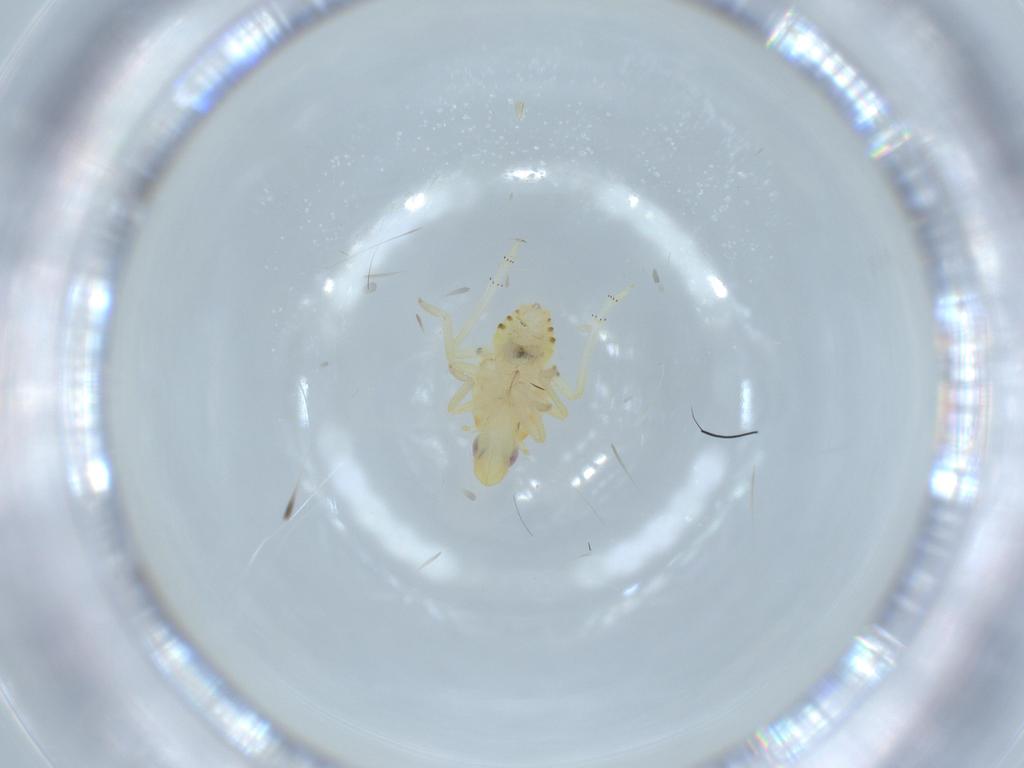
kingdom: Animalia
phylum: Arthropoda
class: Insecta
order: Hemiptera
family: Tropiduchidae
